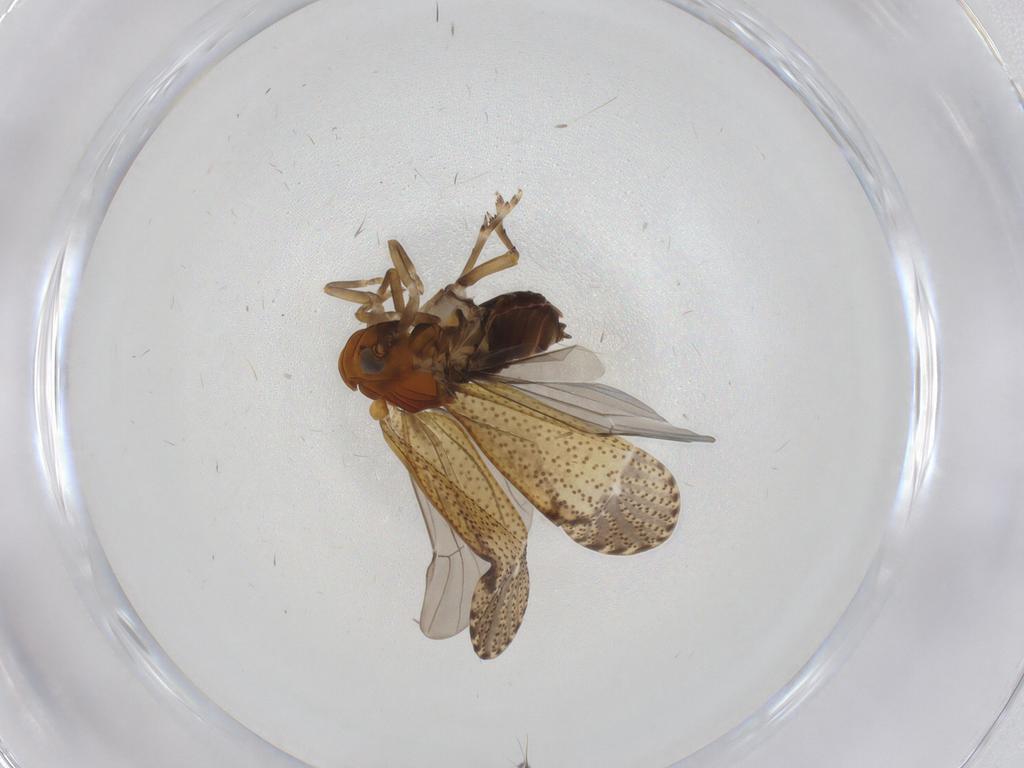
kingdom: Animalia
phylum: Arthropoda
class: Insecta
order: Hemiptera
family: Delphacidae
